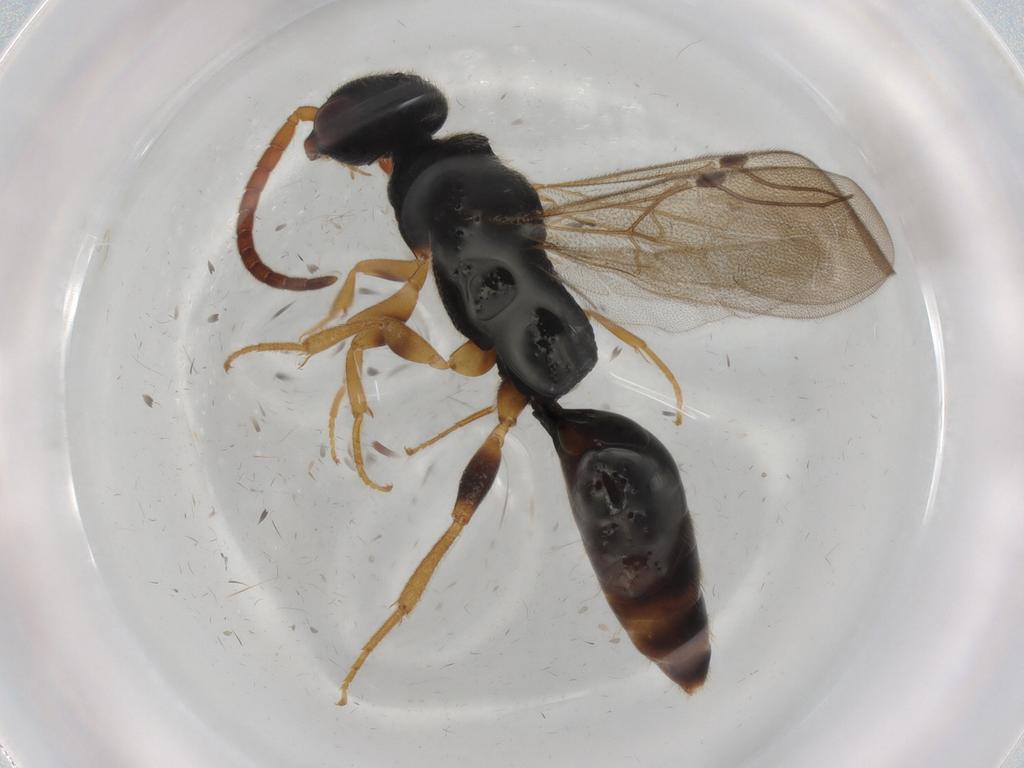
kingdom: Animalia
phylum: Arthropoda
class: Insecta
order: Hymenoptera
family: Bethylidae
